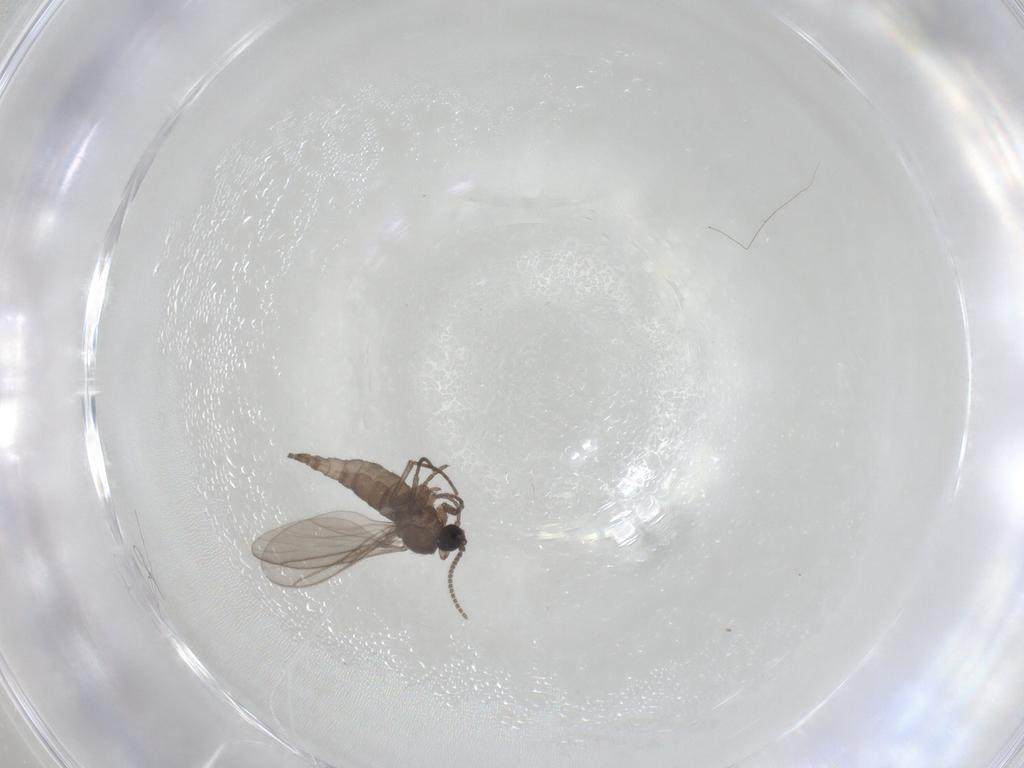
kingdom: Animalia
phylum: Arthropoda
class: Insecta
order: Diptera
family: Sciaridae
